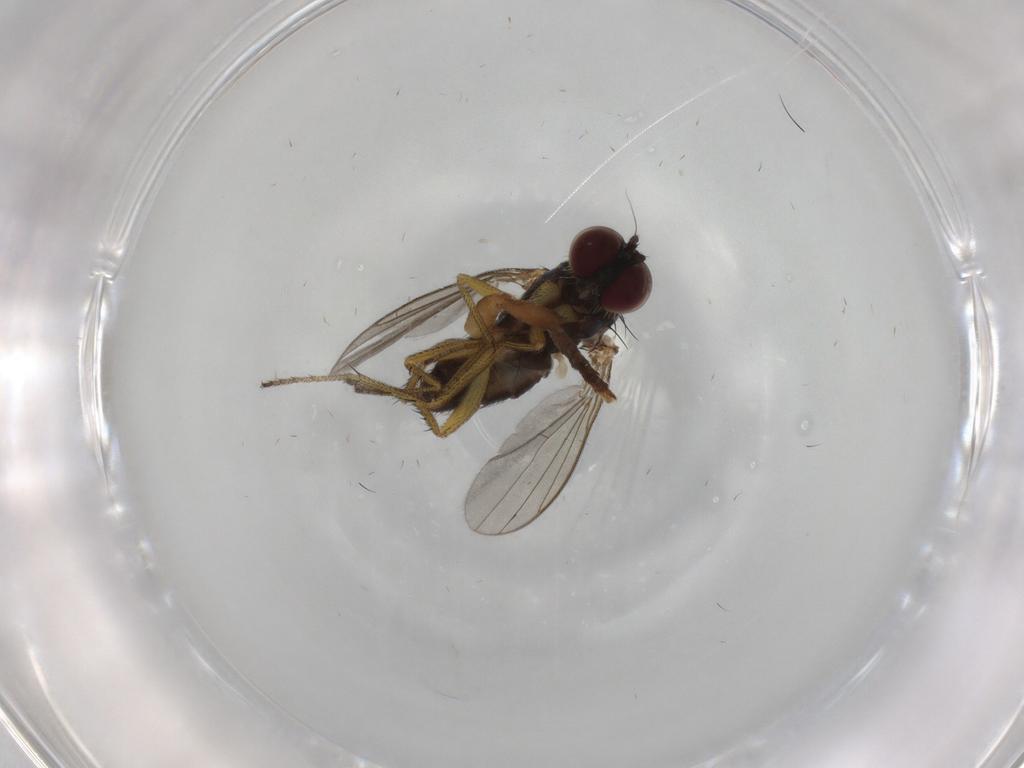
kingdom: Animalia
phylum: Arthropoda
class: Insecta
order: Diptera
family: Dolichopodidae
